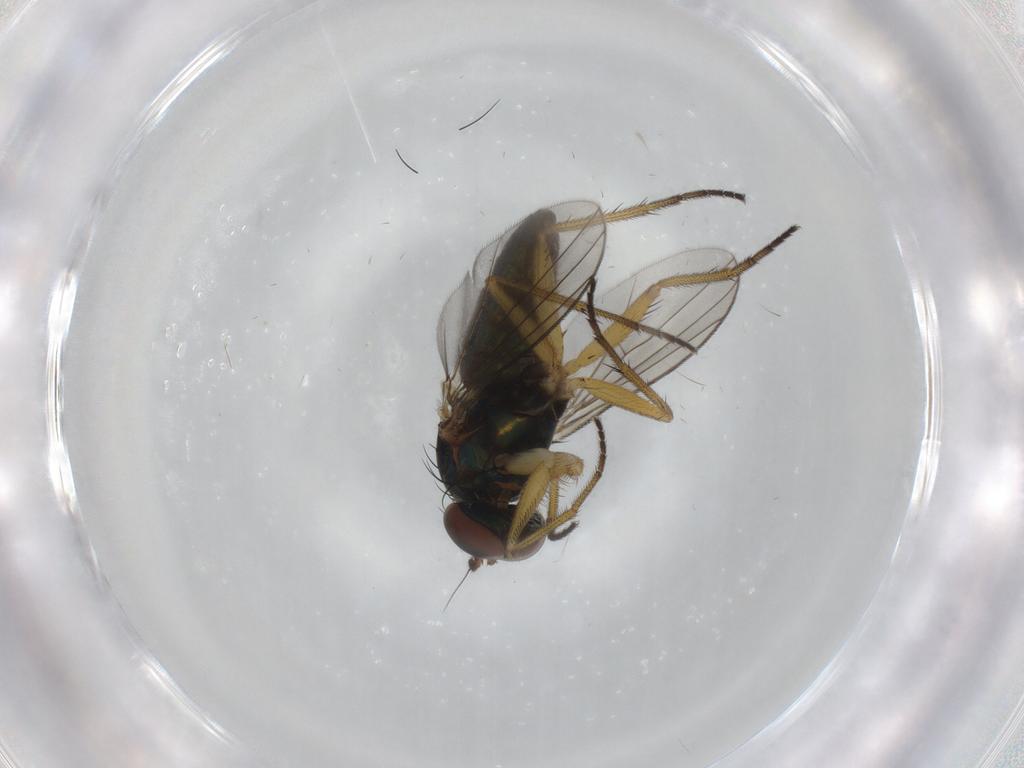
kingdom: Animalia
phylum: Arthropoda
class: Insecta
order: Diptera
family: Dolichopodidae
